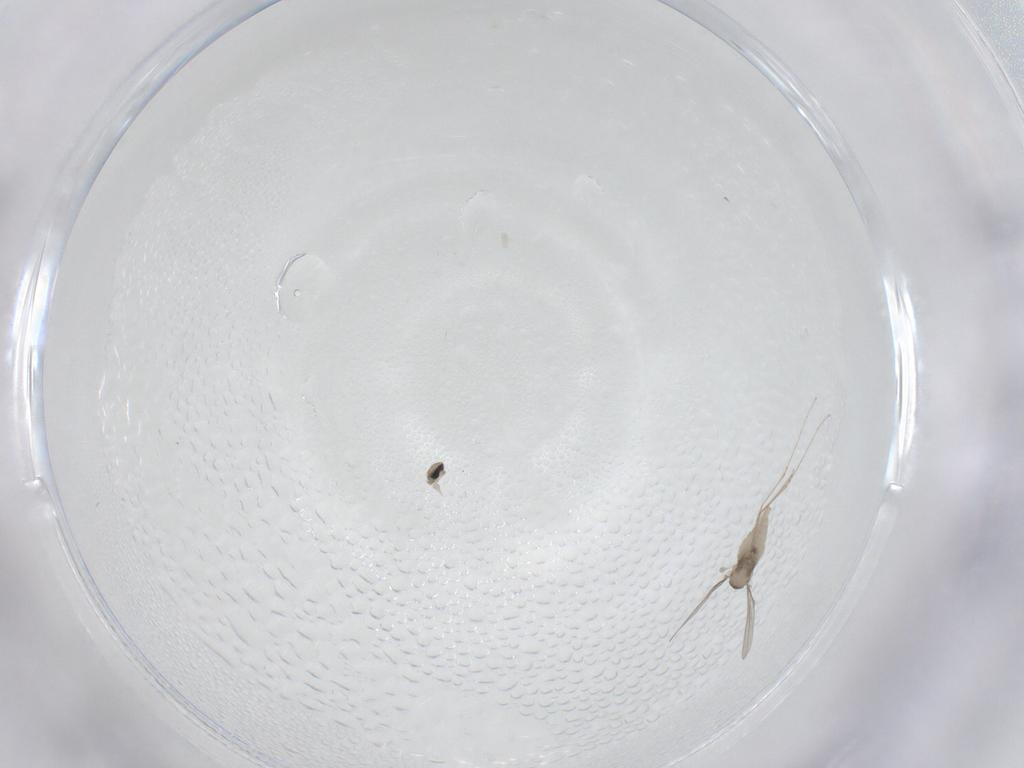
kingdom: Animalia
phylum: Arthropoda
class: Insecta
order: Diptera
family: Cecidomyiidae
